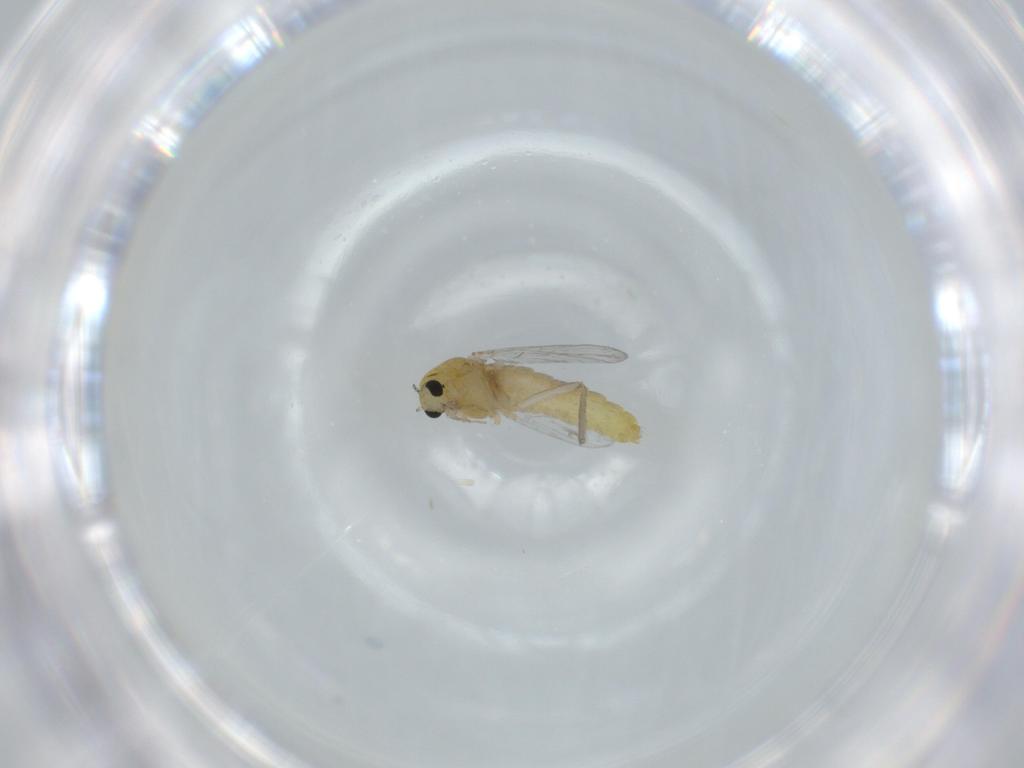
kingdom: Animalia
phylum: Arthropoda
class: Insecta
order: Diptera
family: Chironomidae
